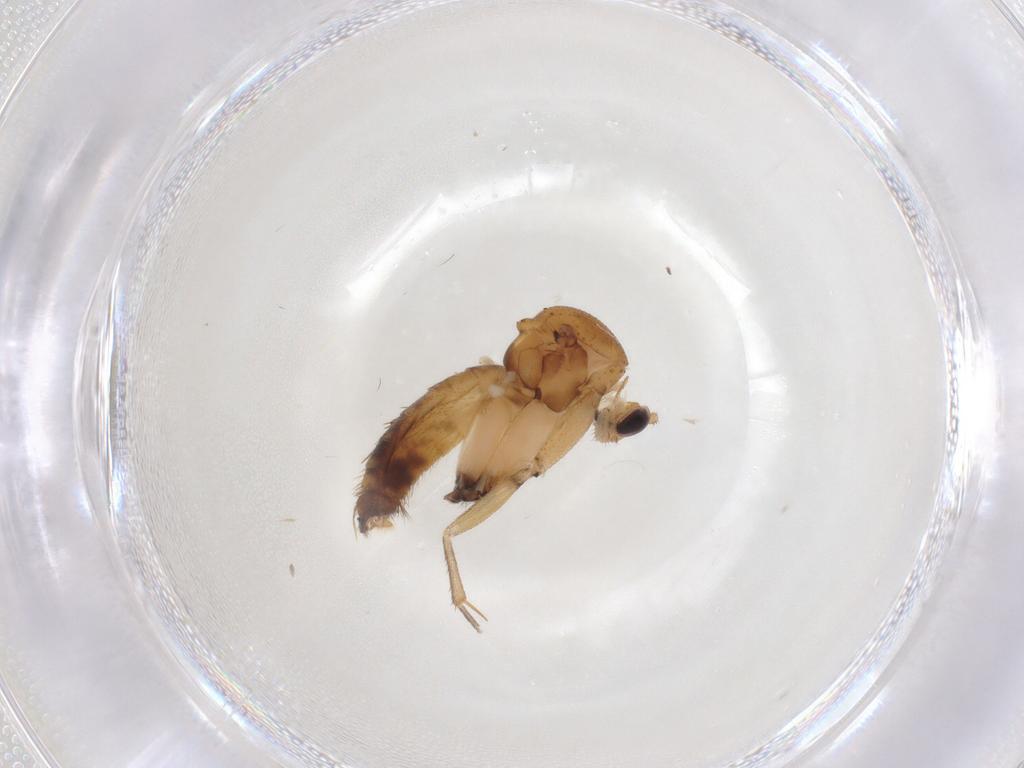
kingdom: Animalia
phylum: Arthropoda
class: Insecta
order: Diptera
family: Mycetophilidae
